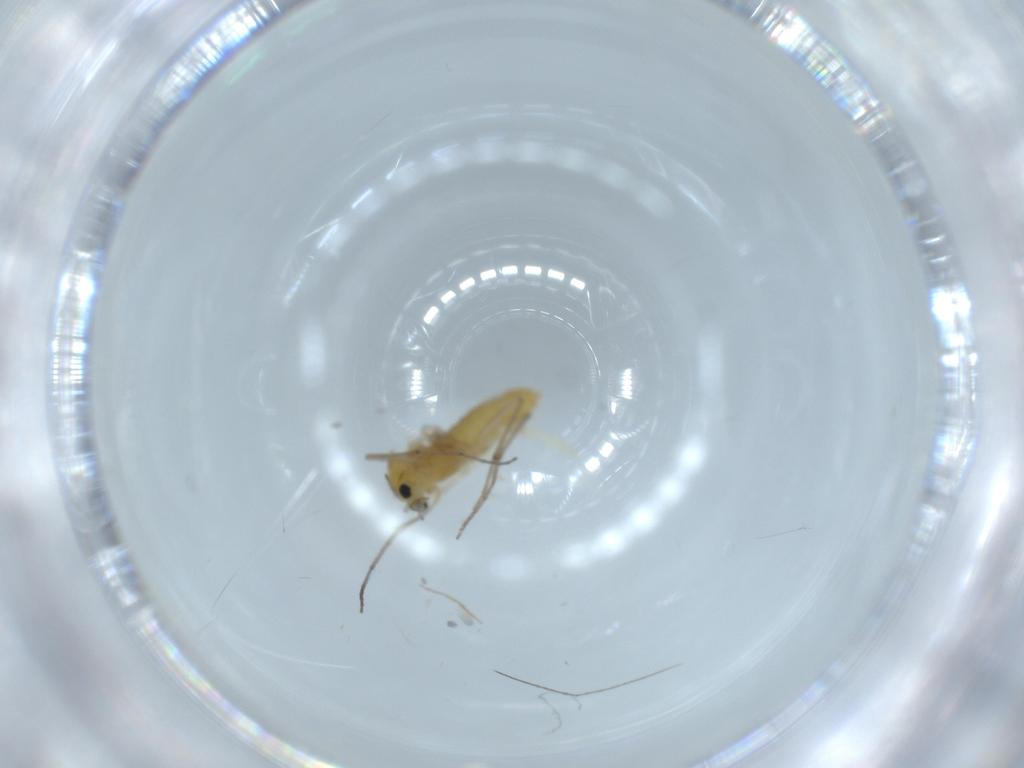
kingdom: Animalia
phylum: Arthropoda
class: Insecta
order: Diptera
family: Chironomidae
